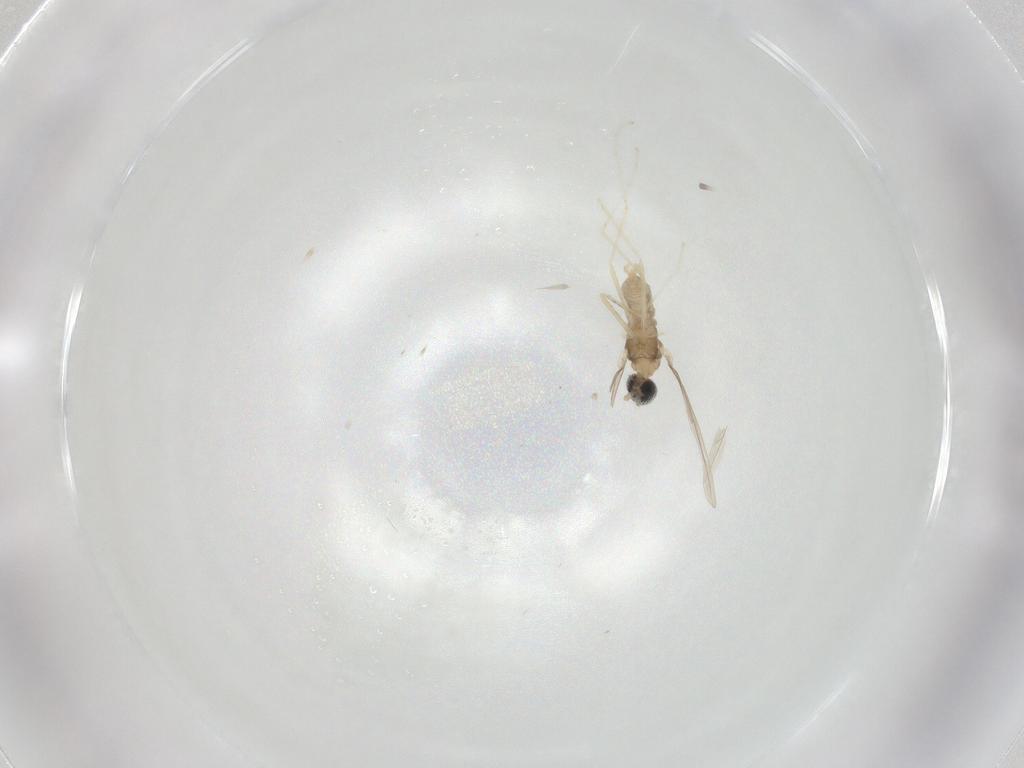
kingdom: Animalia
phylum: Arthropoda
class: Insecta
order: Diptera
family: Cecidomyiidae
